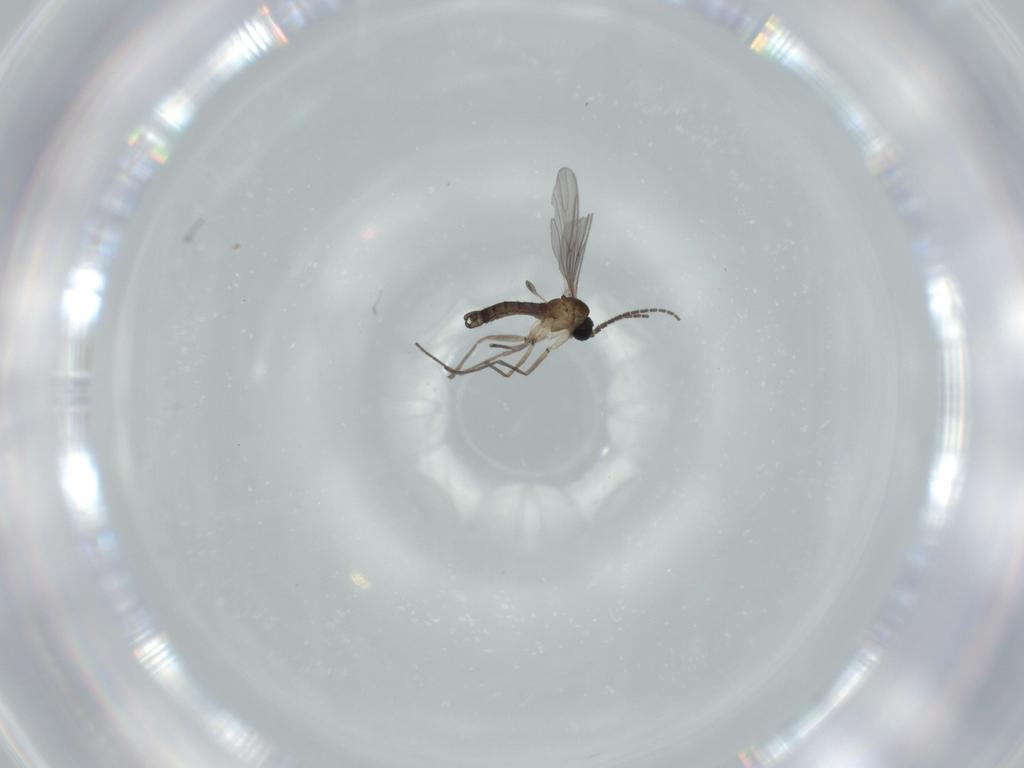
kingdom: Animalia
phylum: Arthropoda
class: Insecta
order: Diptera
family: Sciaridae
